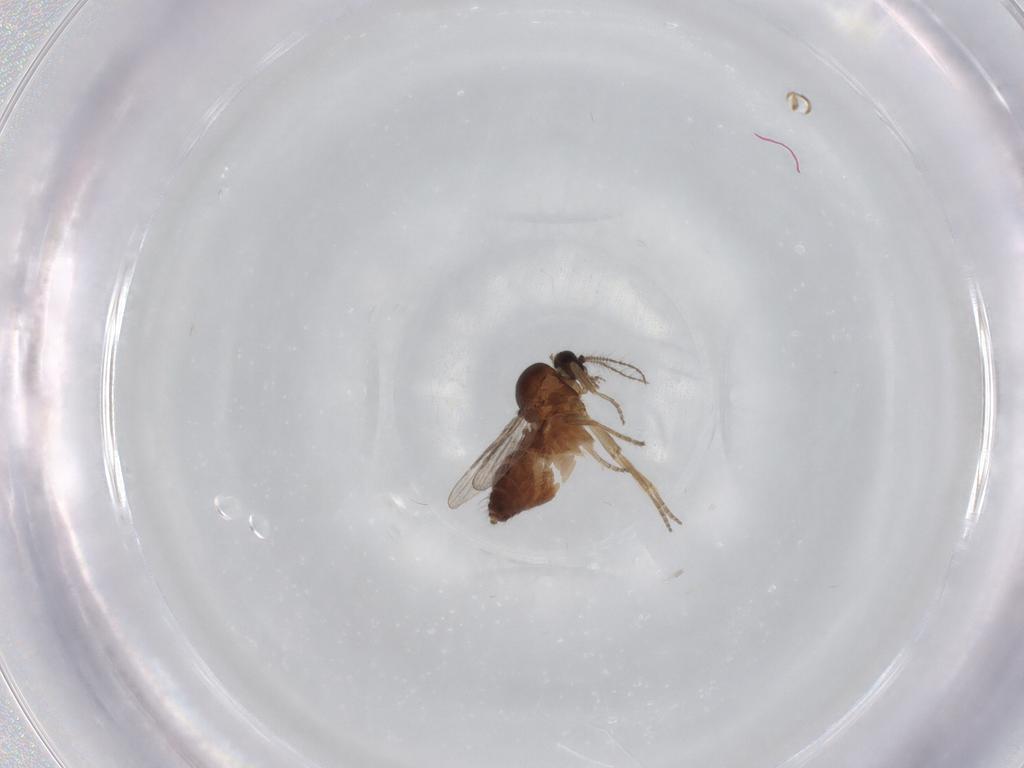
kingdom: Animalia
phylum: Arthropoda
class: Insecta
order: Diptera
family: Ceratopogonidae
